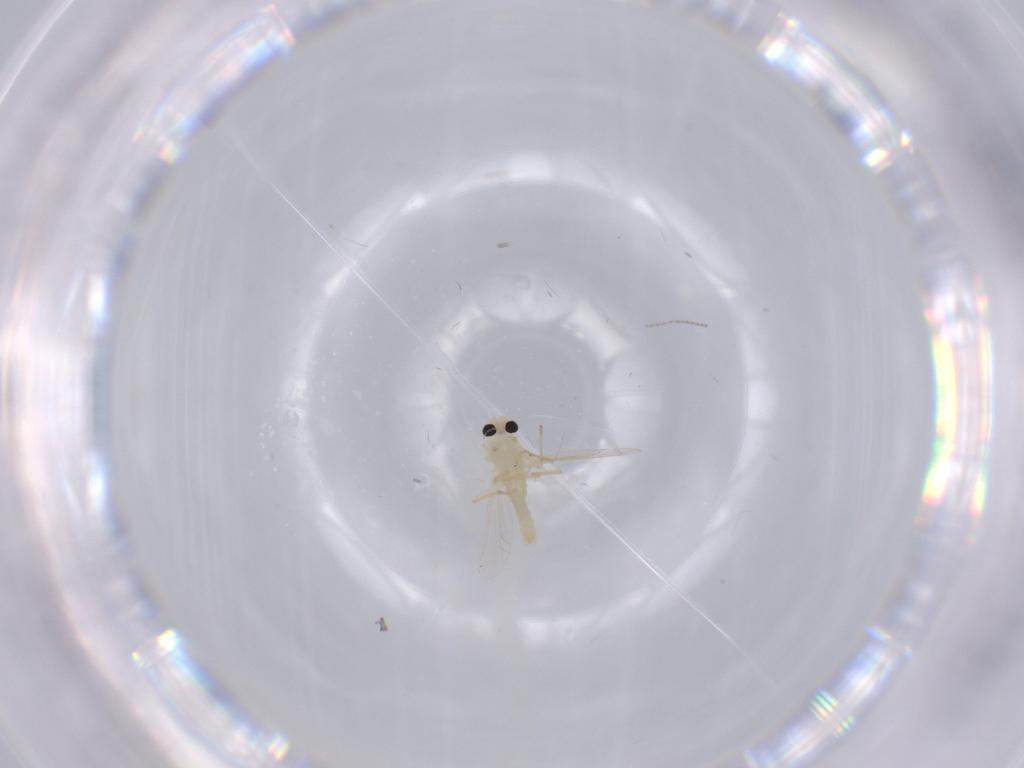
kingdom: Animalia
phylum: Arthropoda
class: Insecta
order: Diptera
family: Chironomidae
